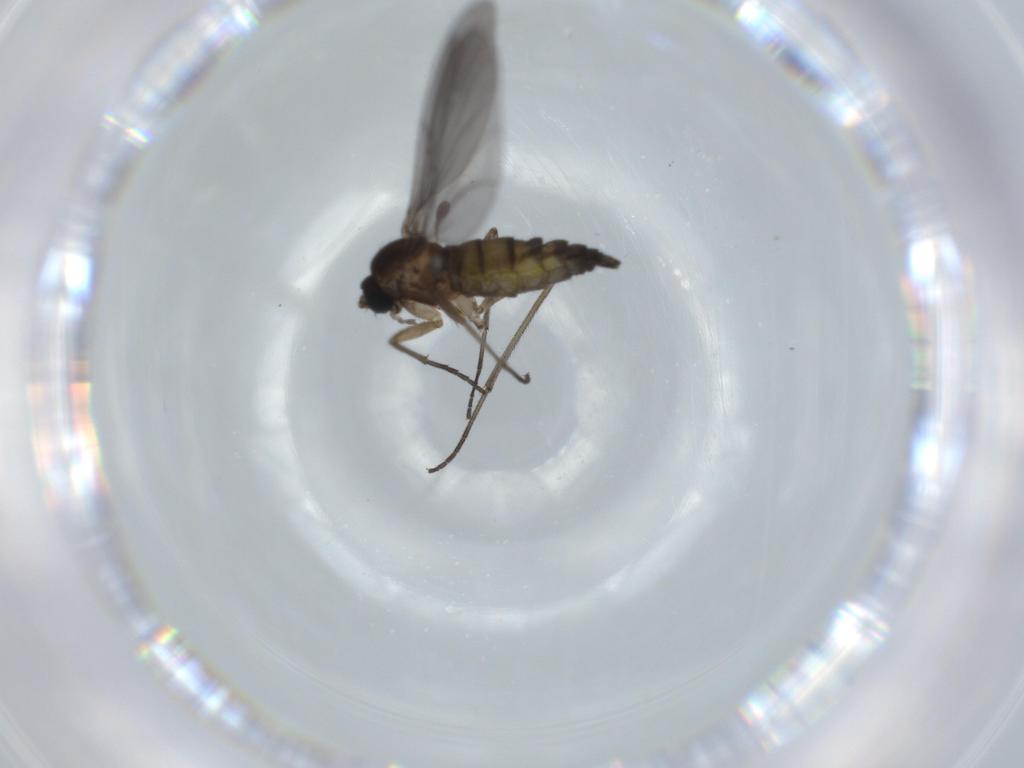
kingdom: Animalia
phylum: Arthropoda
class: Insecta
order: Diptera
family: Sciaridae
